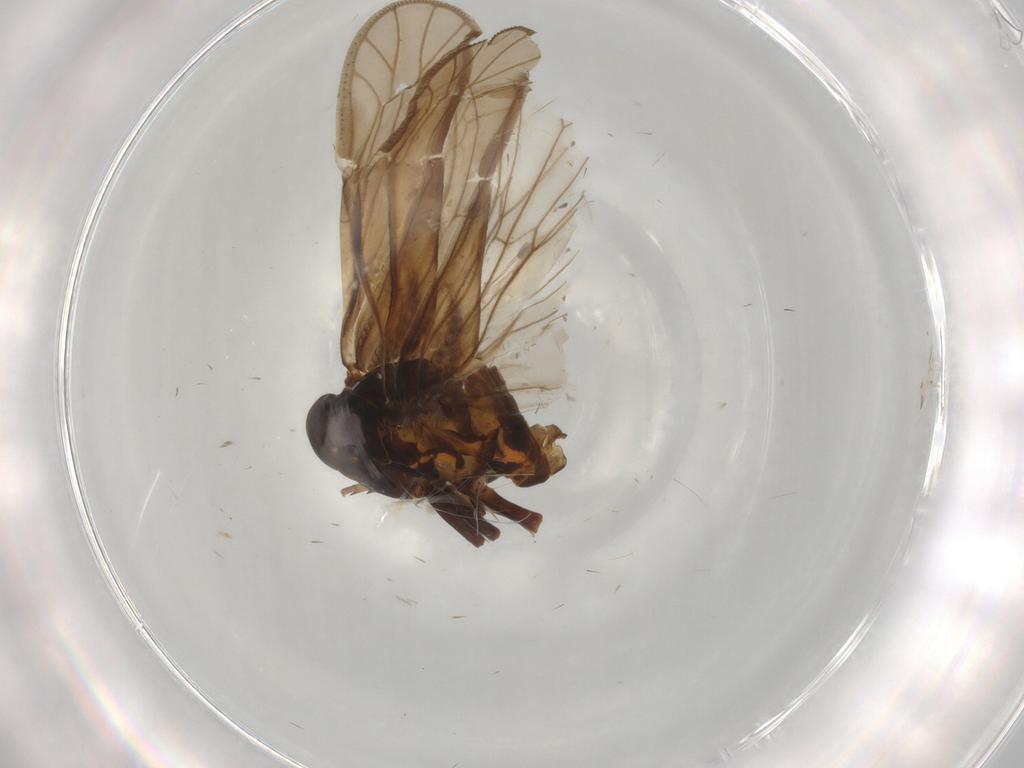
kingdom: Animalia
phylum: Arthropoda
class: Insecta
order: Hemiptera
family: Meenoplidae
